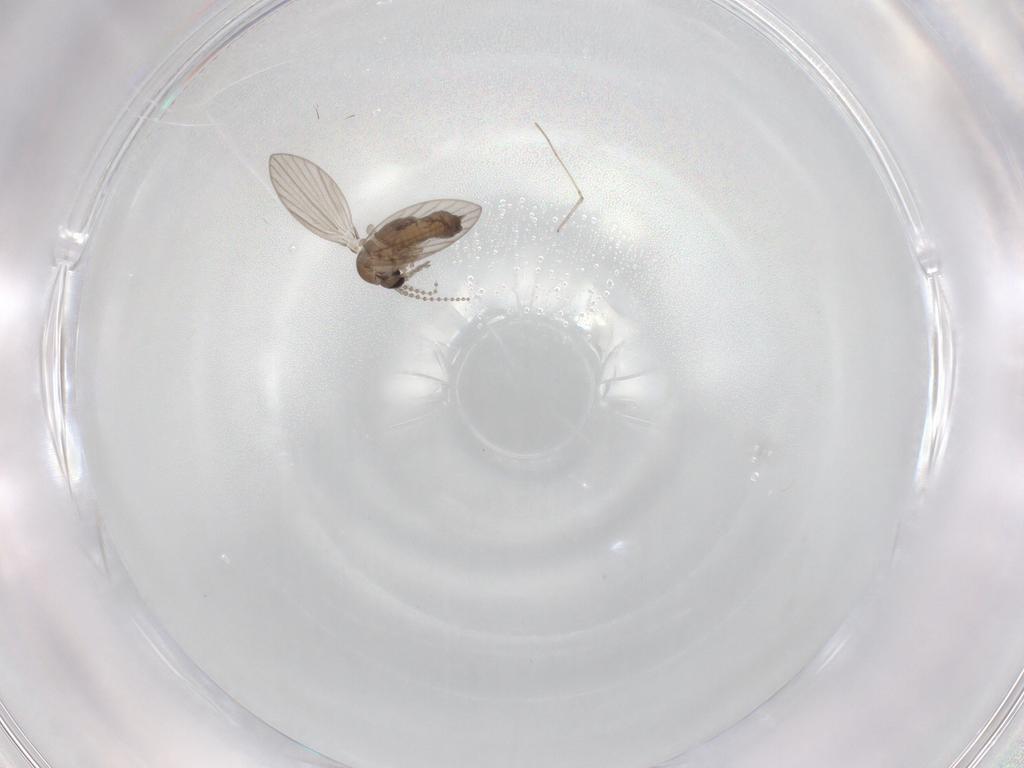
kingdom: Animalia
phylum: Arthropoda
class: Insecta
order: Diptera
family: Psychodidae
